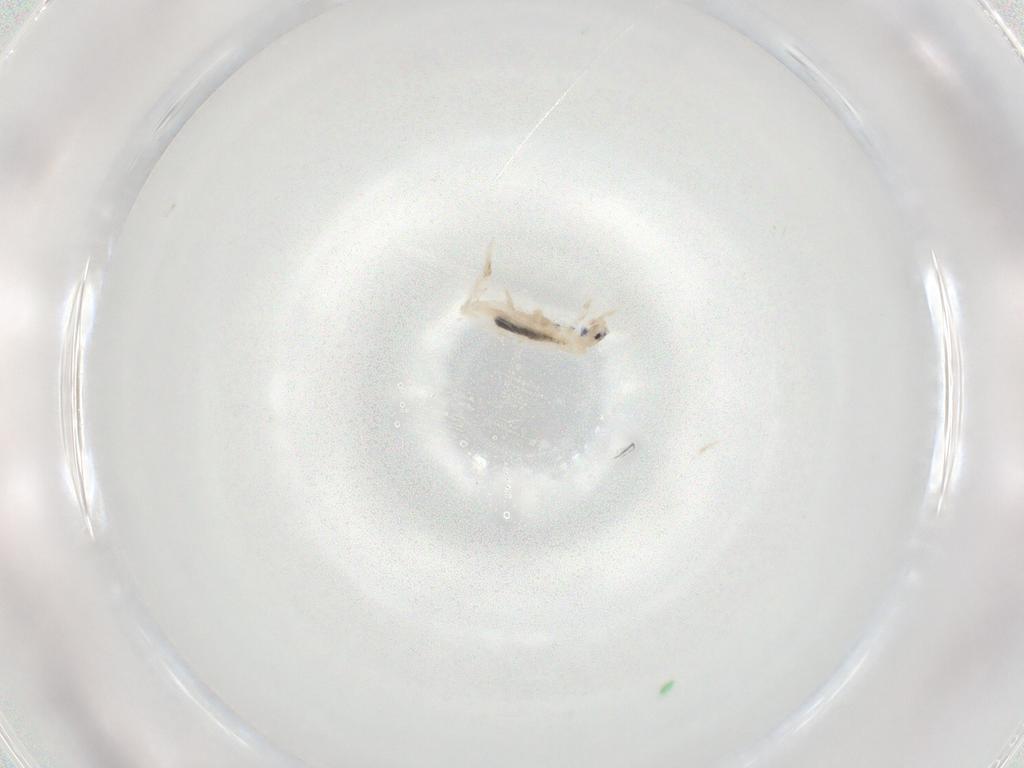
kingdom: Animalia
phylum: Arthropoda
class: Collembola
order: Entomobryomorpha
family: Entomobryidae
